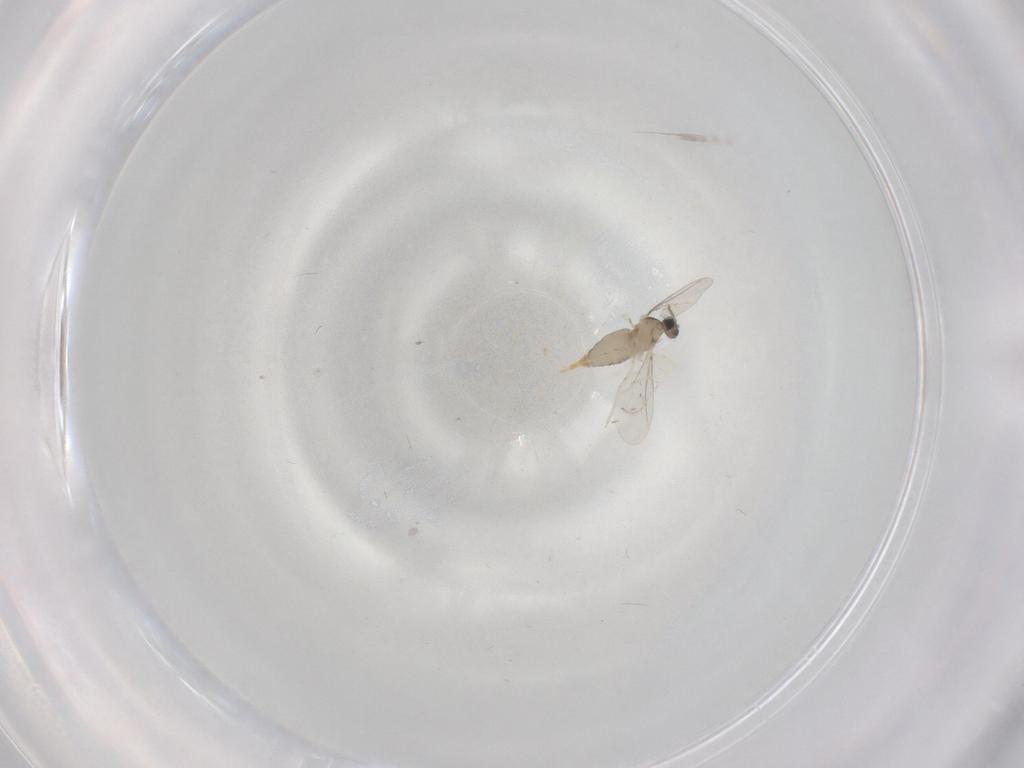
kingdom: Animalia
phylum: Arthropoda
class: Insecta
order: Diptera
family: Cecidomyiidae
